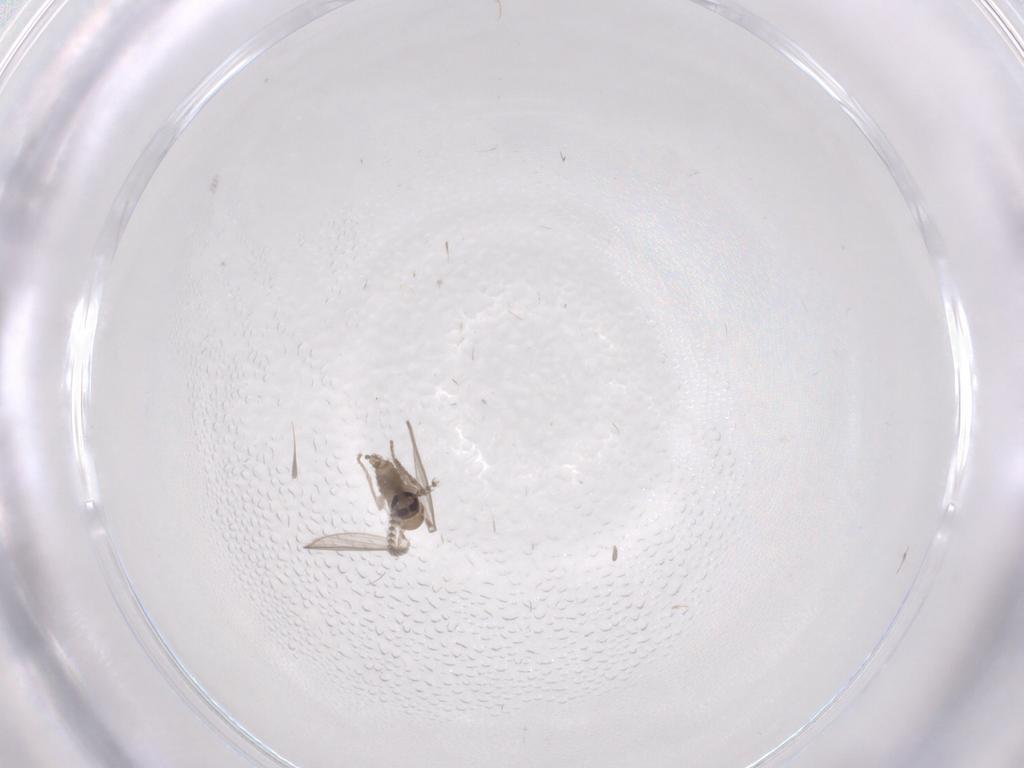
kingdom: Animalia
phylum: Arthropoda
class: Insecta
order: Diptera
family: Psychodidae
